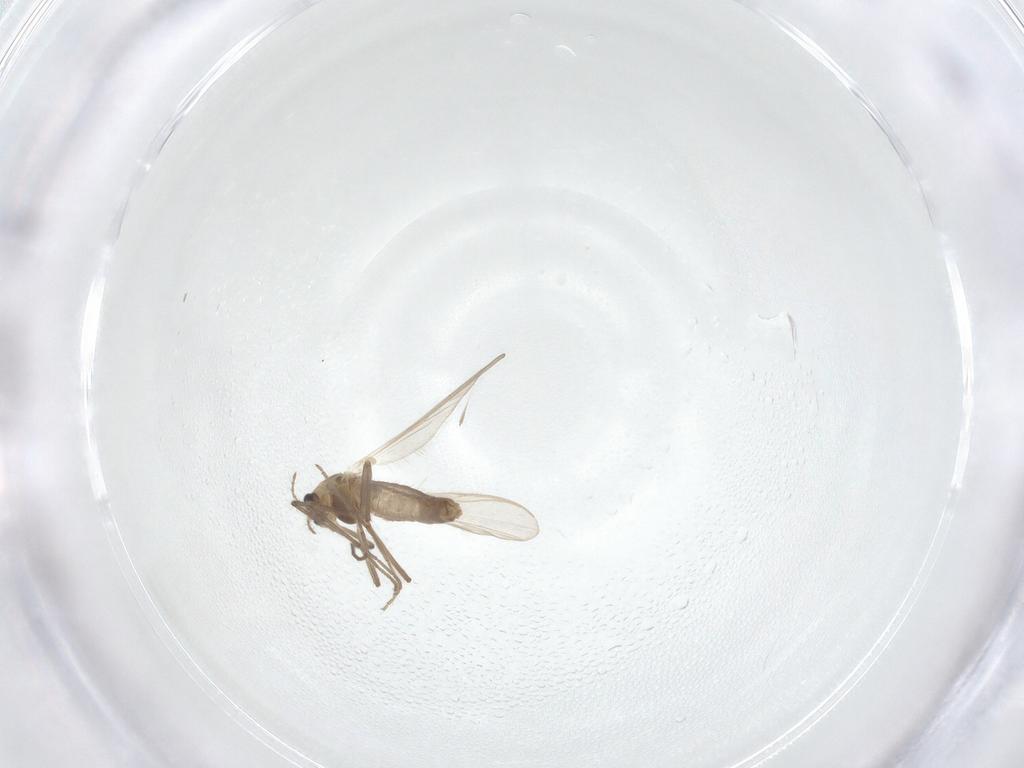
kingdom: Animalia
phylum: Arthropoda
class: Insecta
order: Diptera
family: Chironomidae
